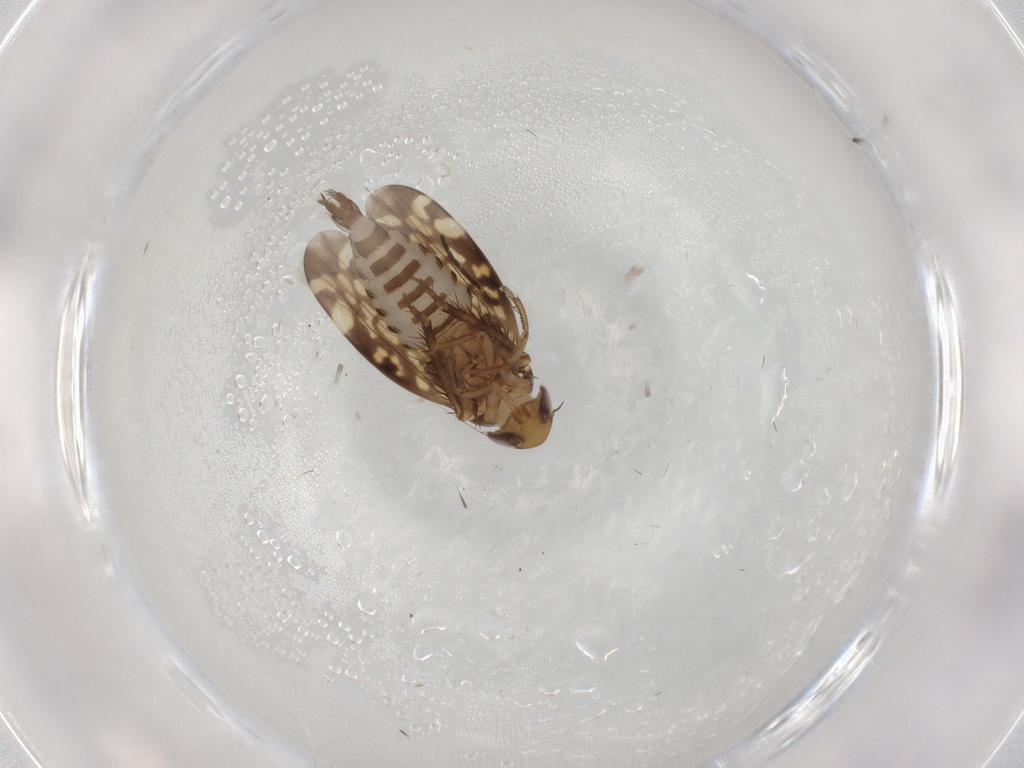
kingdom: Animalia
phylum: Arthropoda
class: Insecta
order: Hemiptera
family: Cicadellidae
